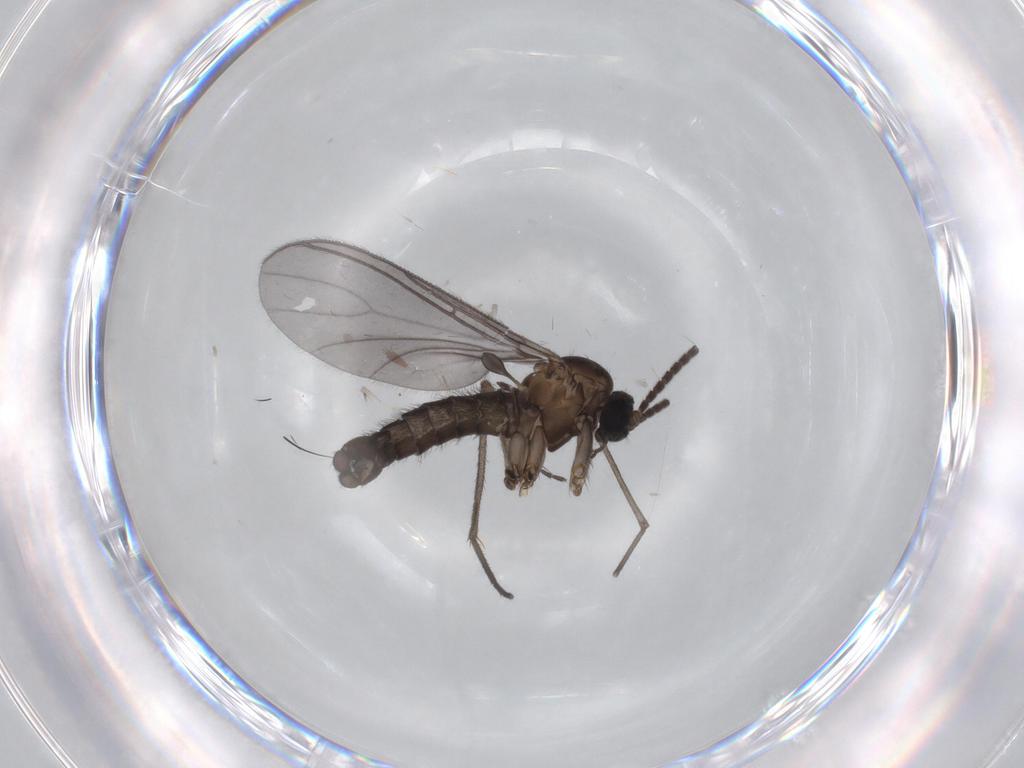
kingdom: Animalia
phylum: Arthropoda
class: Insecta
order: Diptera
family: Sciaridae
